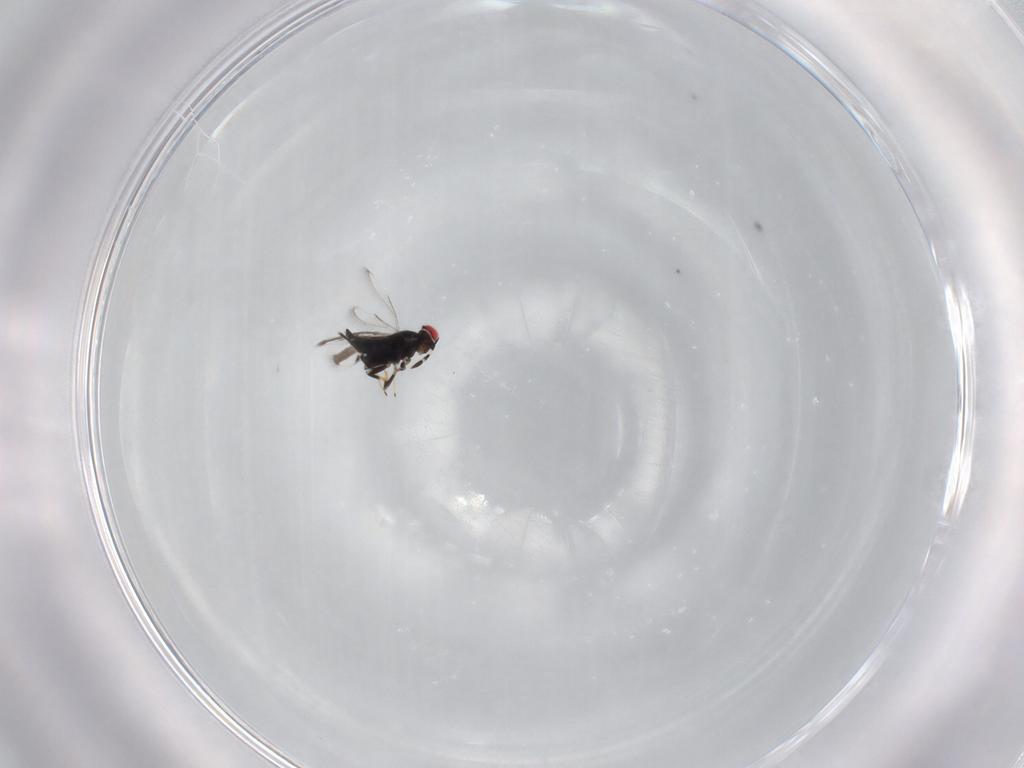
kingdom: Animalia
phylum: Arthropoda
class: Insecta
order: Hymenoptera
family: Azotidae
